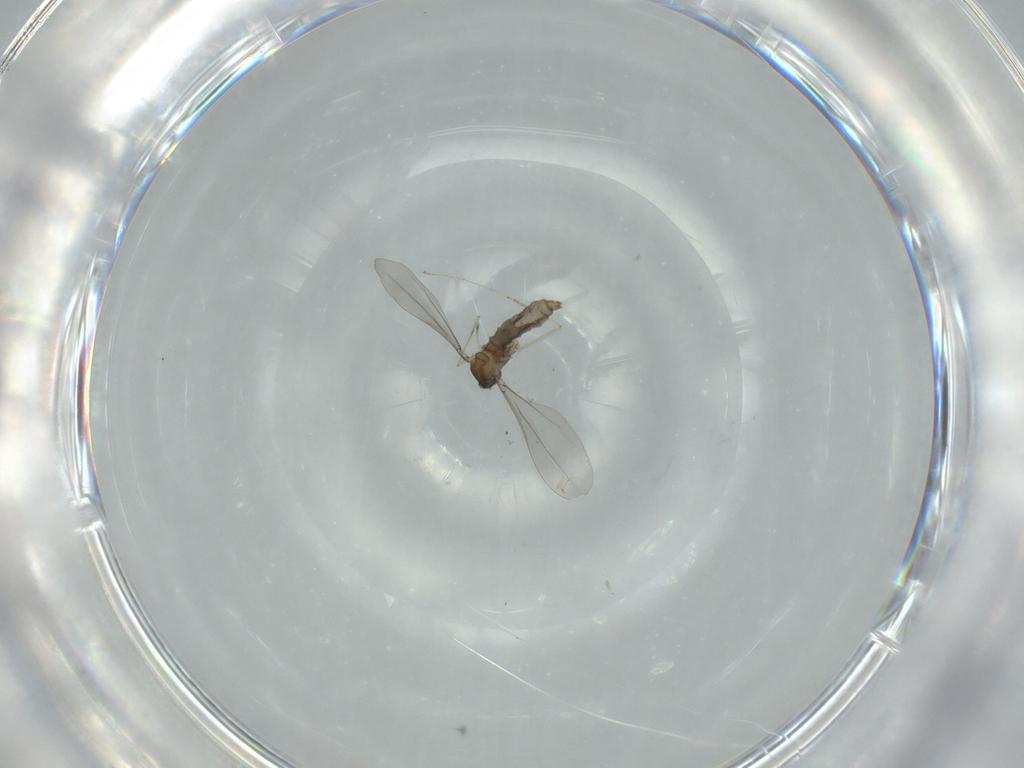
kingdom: Animalia
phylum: Arthropoda
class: Insecta
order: Diptera
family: Cecidomyiidae
